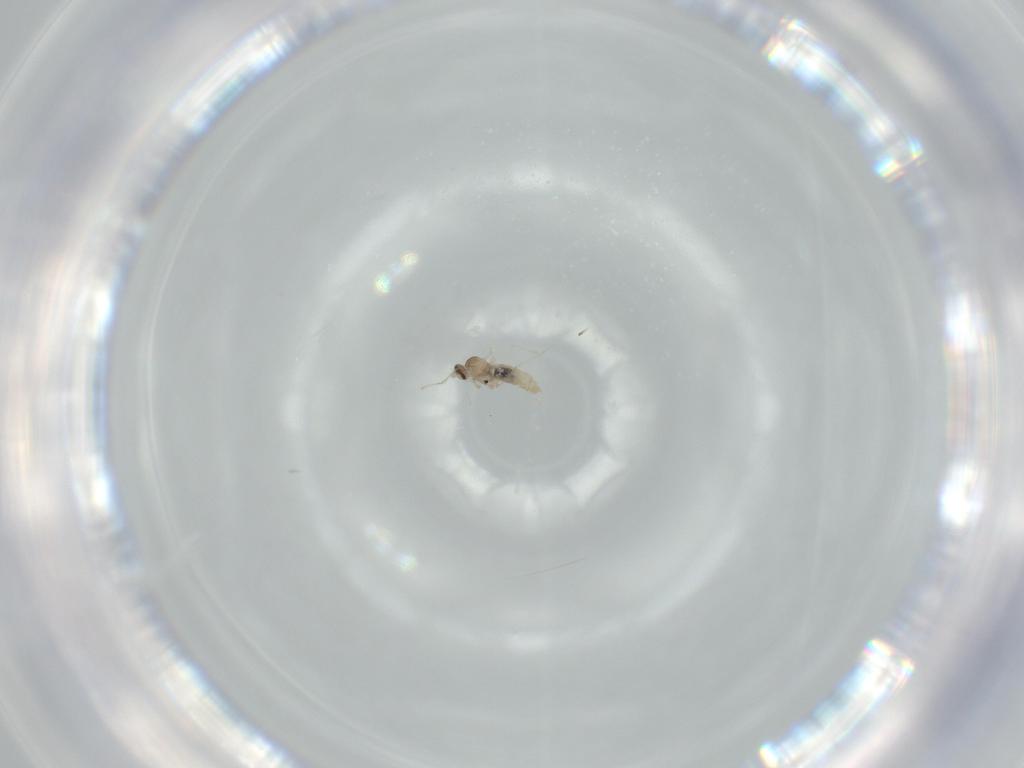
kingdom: Animalia
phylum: Arthropoda
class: Insecta
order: Diptera
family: Cecidomyiidae
